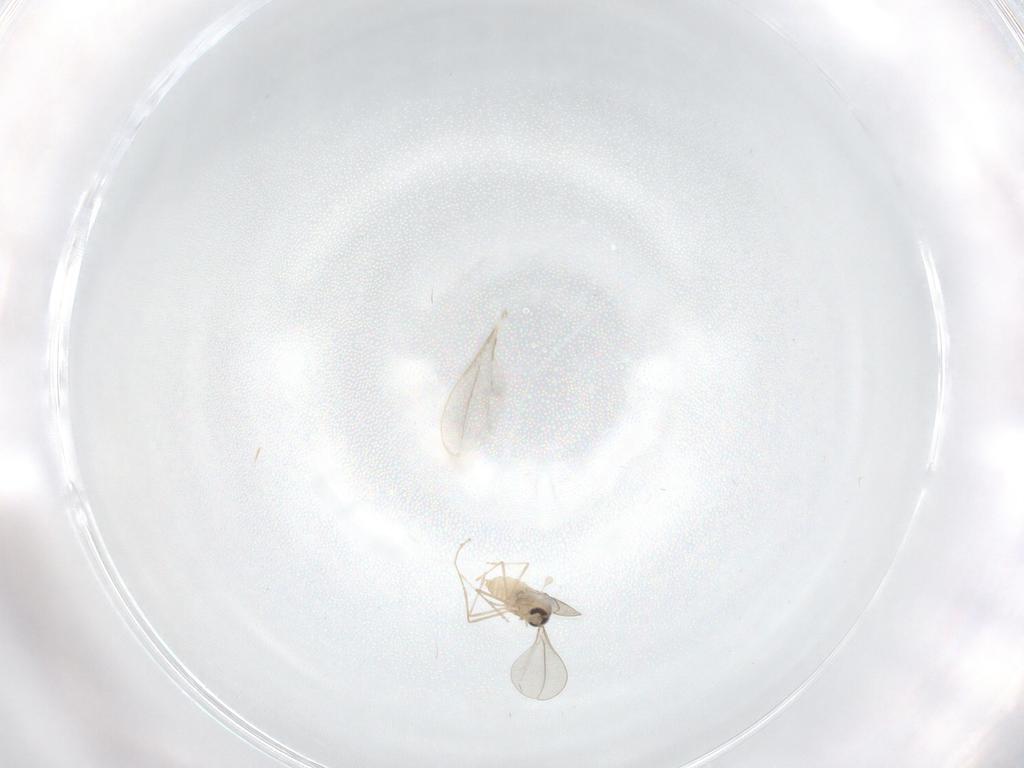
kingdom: Animalia
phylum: Arthropoda
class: Insecta
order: Diptera
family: Cecidomyiidae
